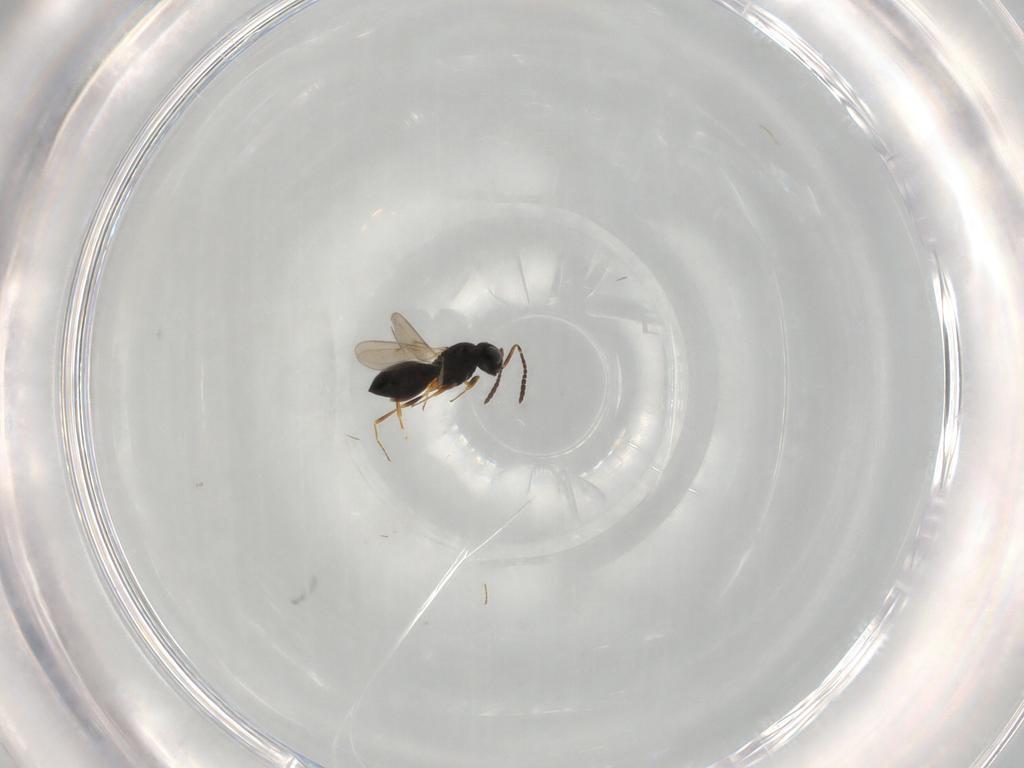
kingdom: Animalia
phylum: Arthropoda
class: Insecta
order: Hymenoptera
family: Scelionidae
